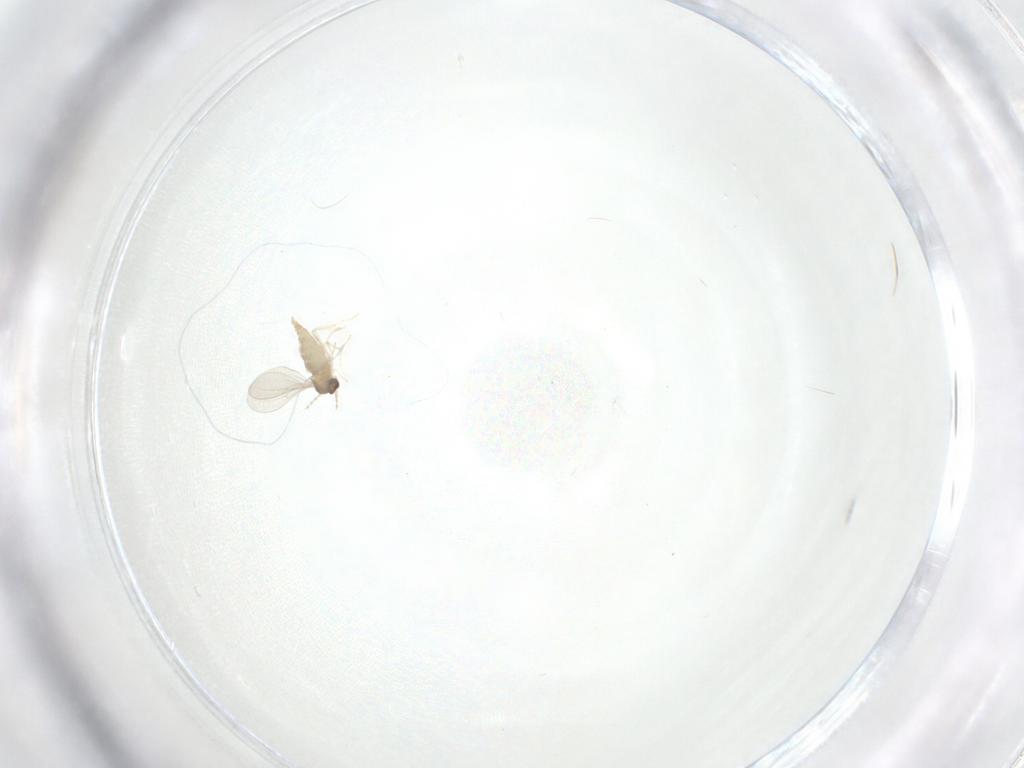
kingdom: Animalia
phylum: Arthropoda
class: Insecta
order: Diptera
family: Cecidomyiidae
